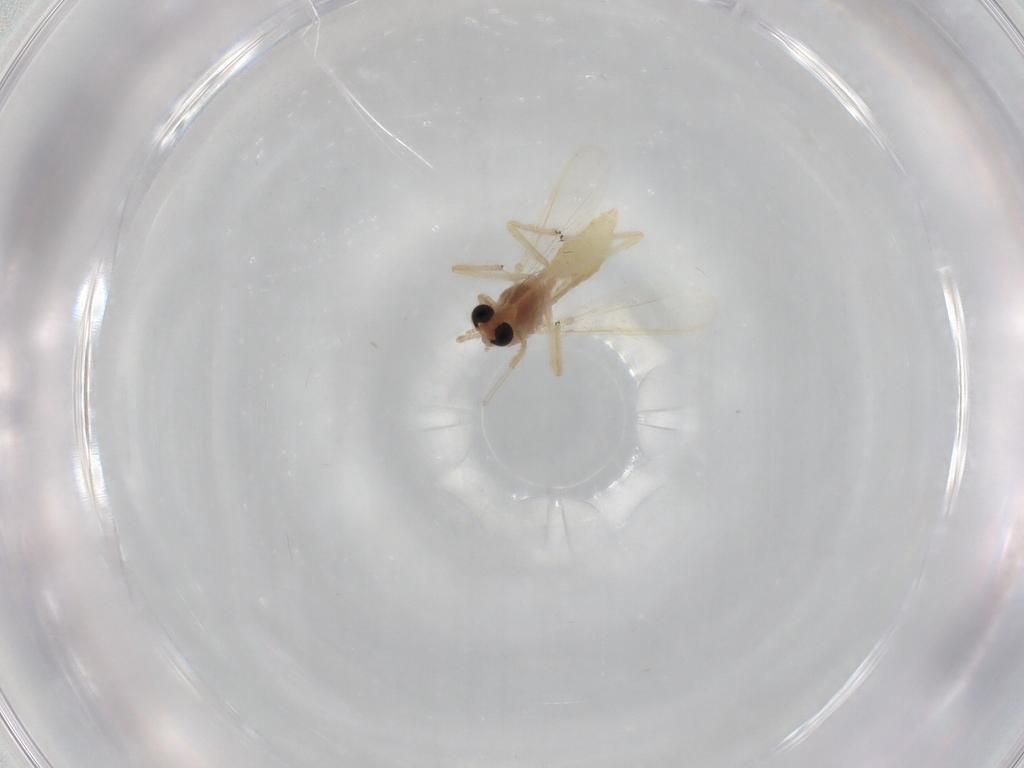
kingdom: Animalia
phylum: Arthropoda
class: Insecta
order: Diptera
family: Chironomidae
